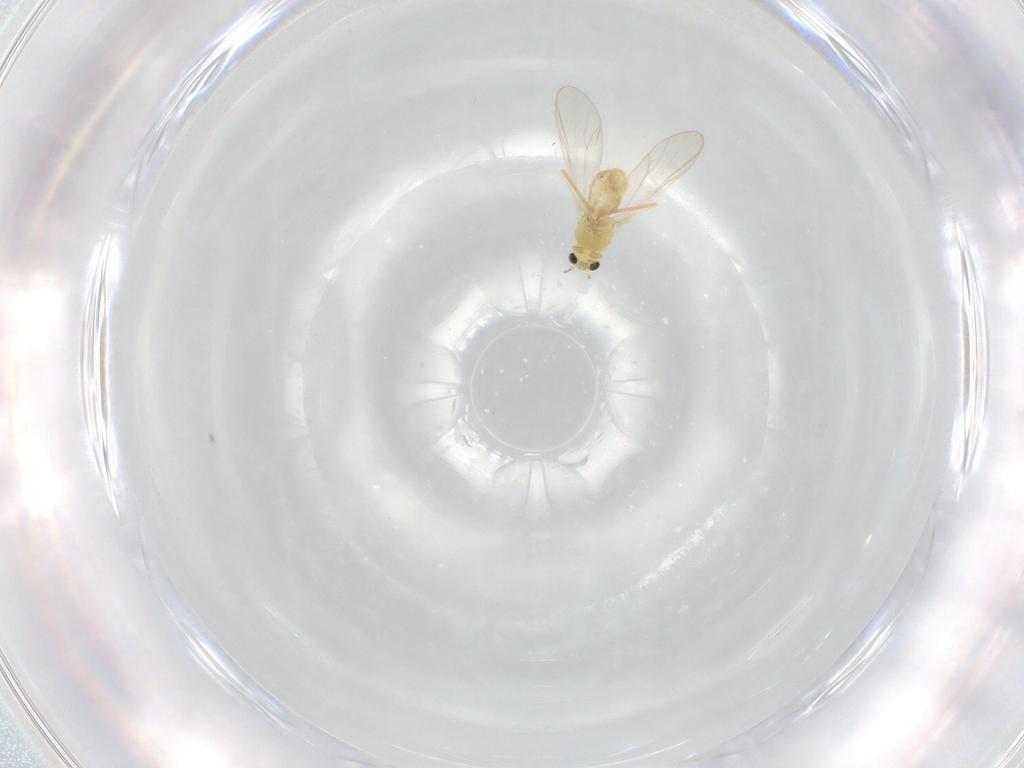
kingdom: Animalia
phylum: Arthropoda
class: Insecta
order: Diptera
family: Chironomidae
